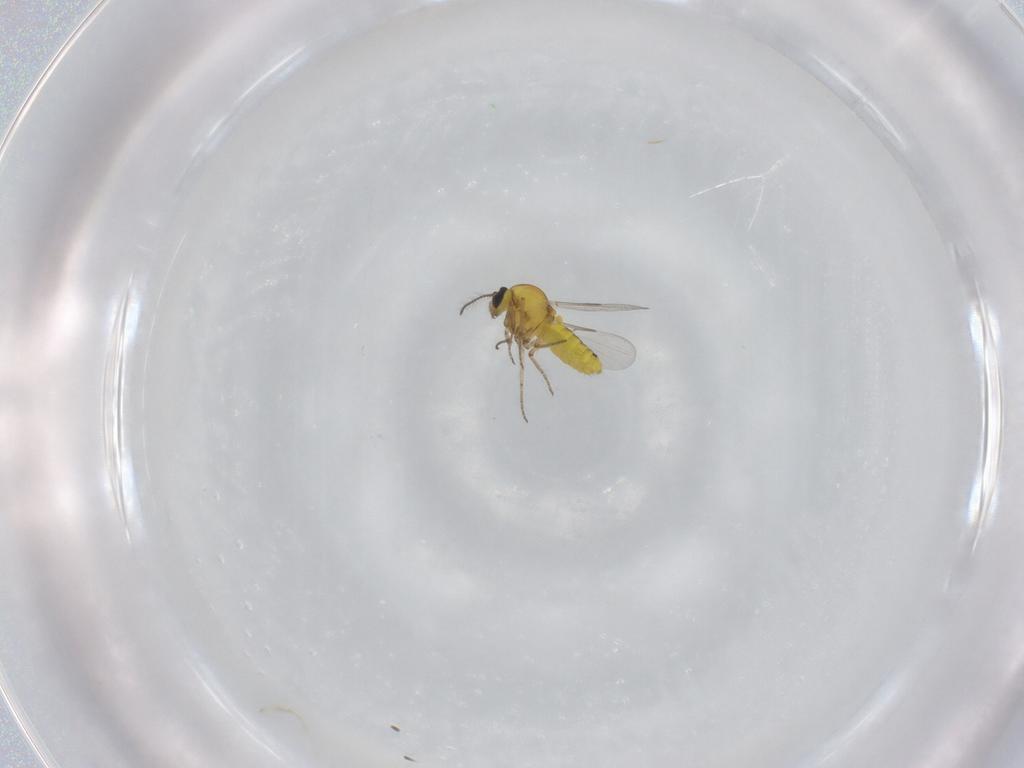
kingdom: Animalia
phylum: Arthropoda
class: Insecta
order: Diptera
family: Ceratopogonidae
